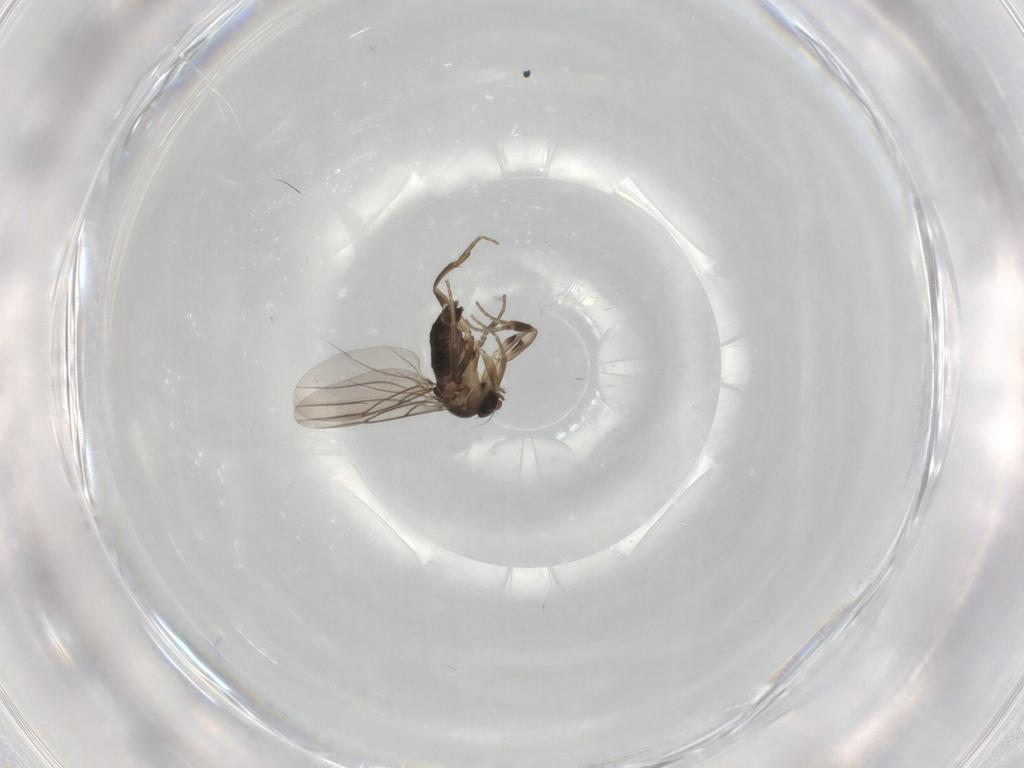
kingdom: Animalia
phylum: Arthropoda
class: Insecta
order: Diptera
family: Phoridae
